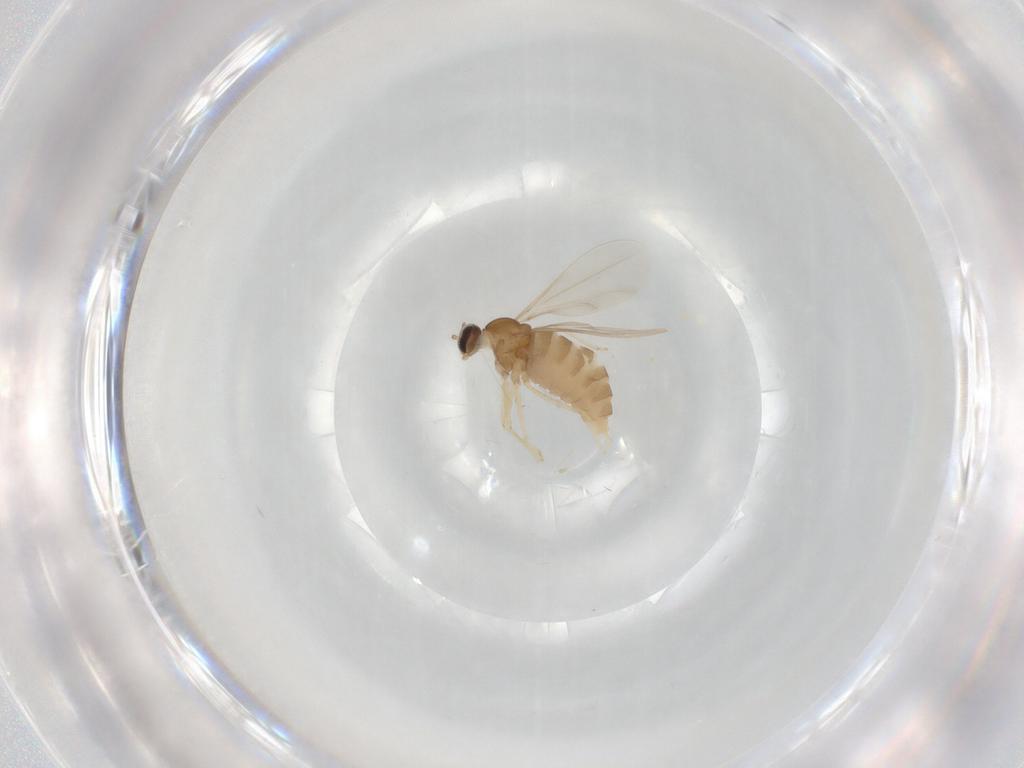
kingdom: Animalia
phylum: Arthropoda
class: Insecta
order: Diptera
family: Cecidomyiidae
